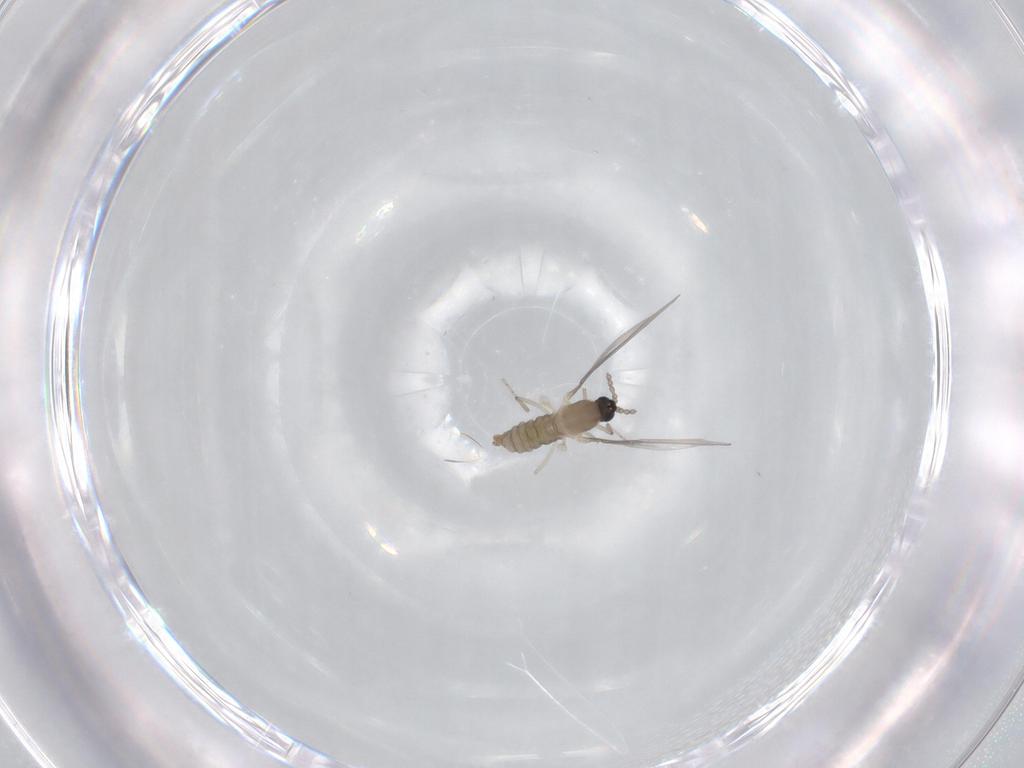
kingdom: Animalia
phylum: Arthropoda
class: Insecta
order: Diptera
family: Cecidomyiidae
